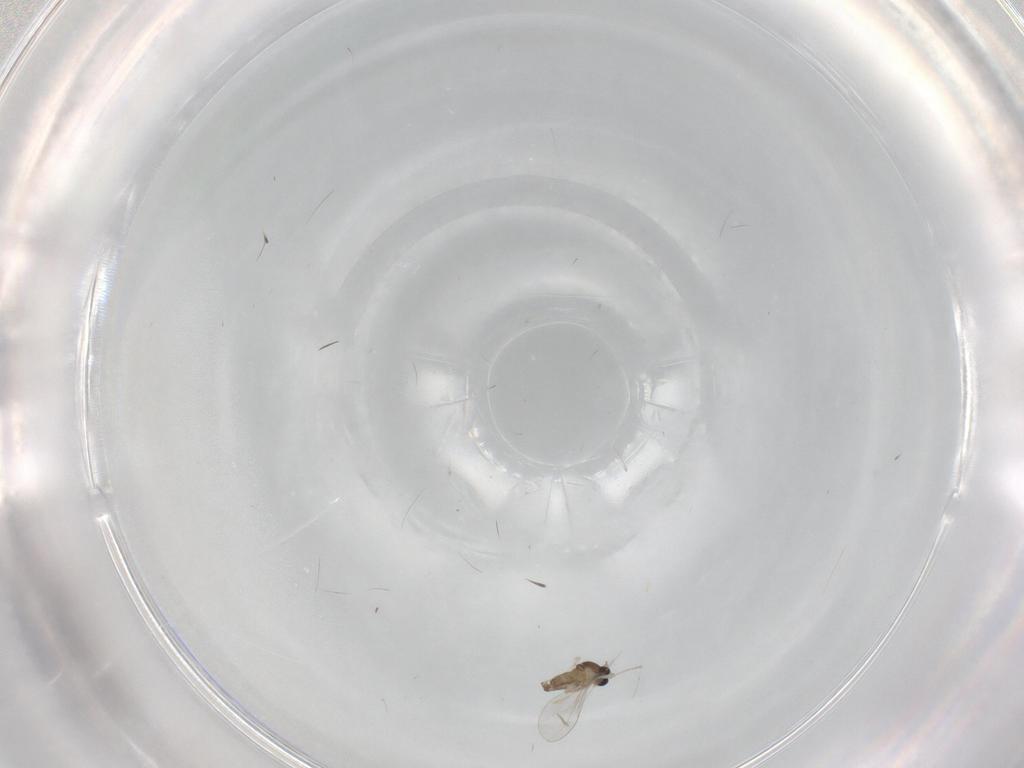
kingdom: Animalia
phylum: Arthropoda
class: Insecta
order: Diptera
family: Cecidomyiidae
